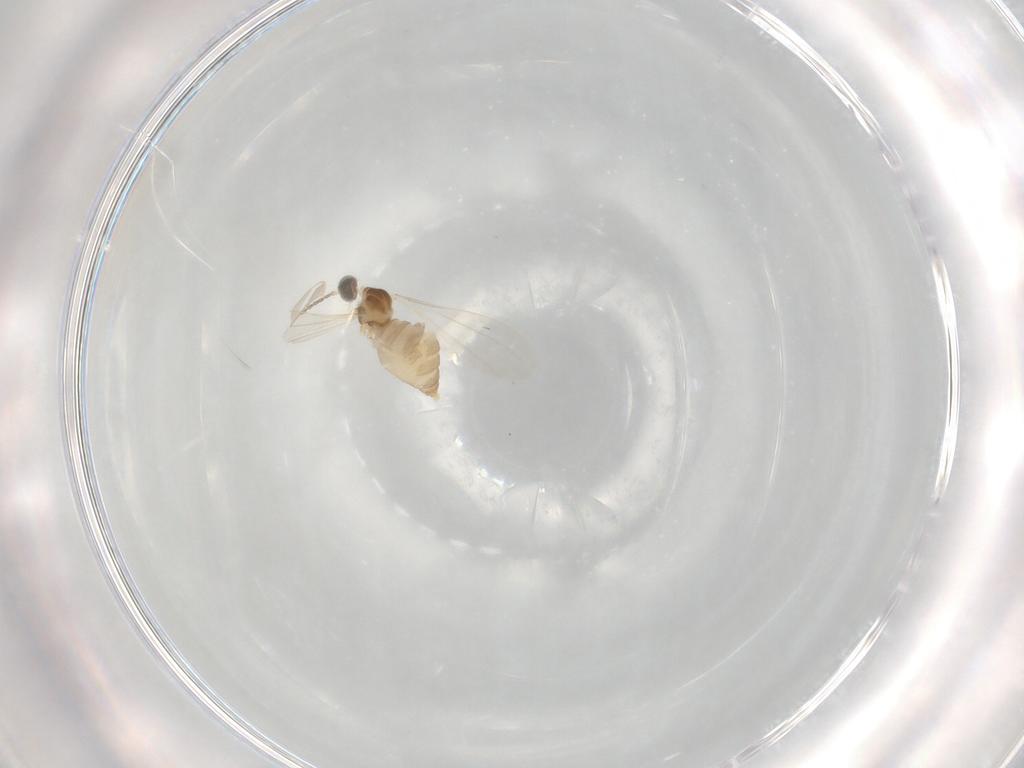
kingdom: Animalia
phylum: Arthropoda
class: Insecta
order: Diptera
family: Cecidomyiidae
